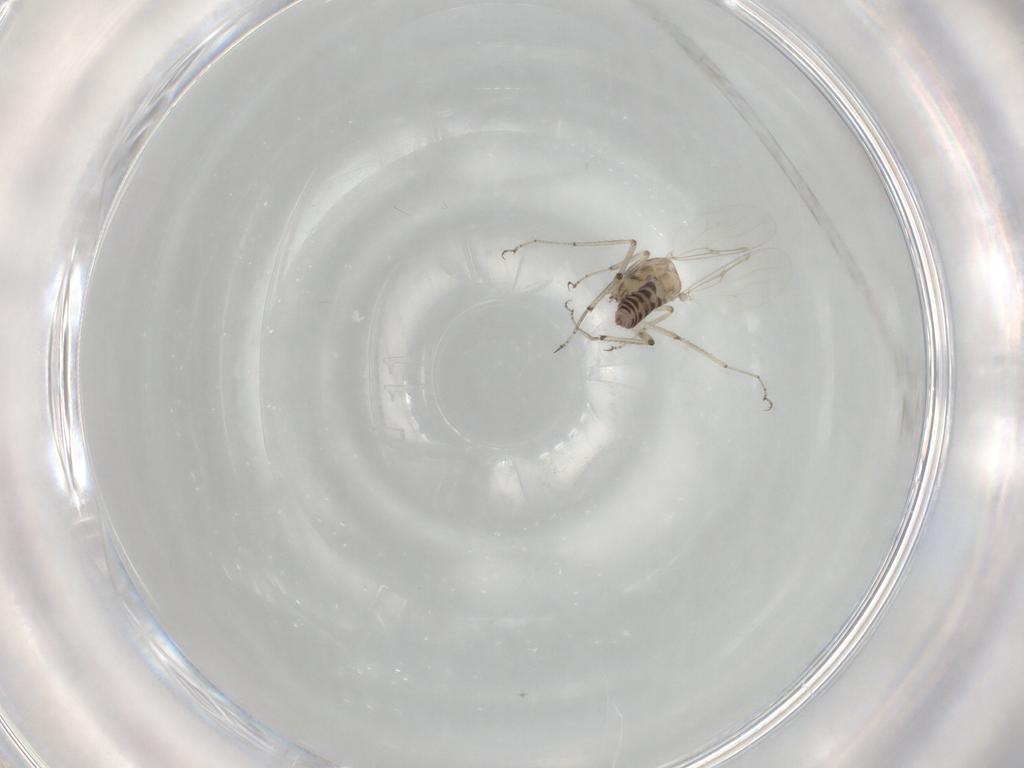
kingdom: Animalia
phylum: Arthropoda
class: Insecta
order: Diptera
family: Ceratopogonidae
